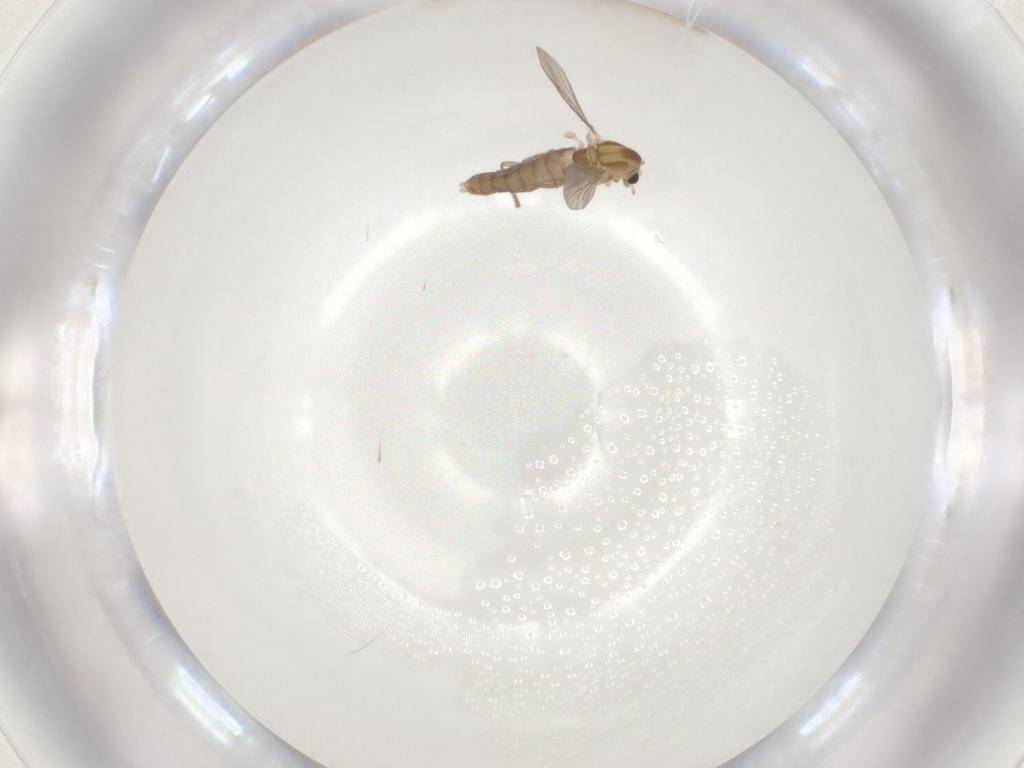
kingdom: Animalia
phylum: Arthropoda
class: Insecta
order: Diptera
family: Chironomidae
